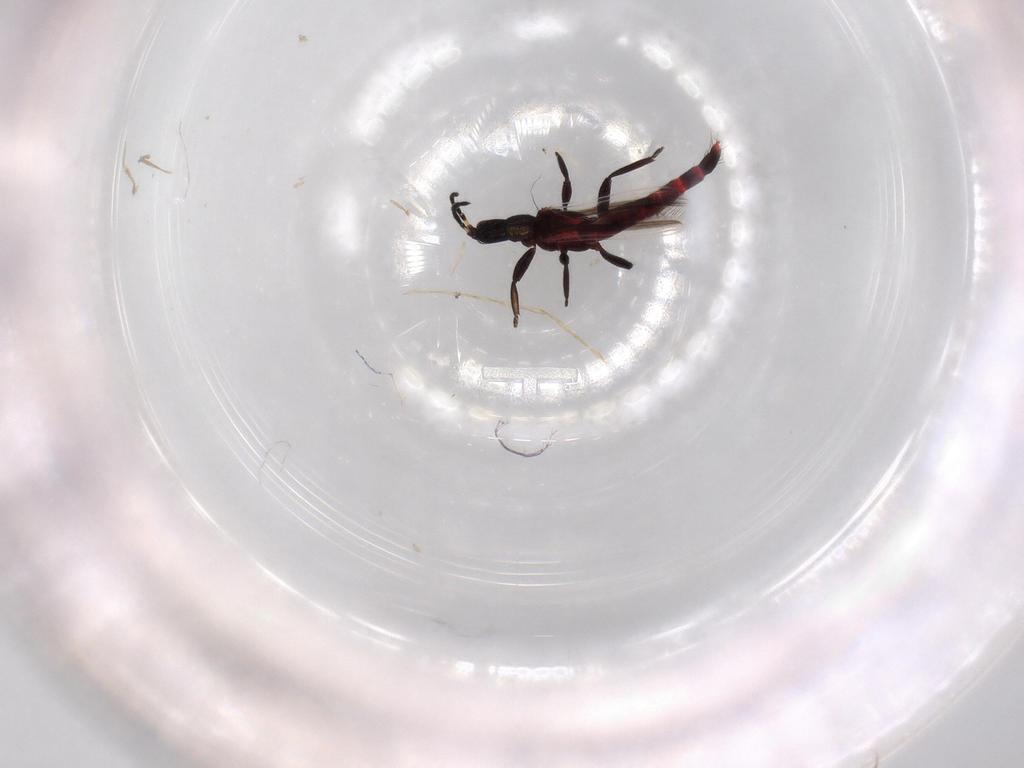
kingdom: Animalia
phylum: Arthropoda
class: Insecta
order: Thysanoptera
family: Aeolothripidae
